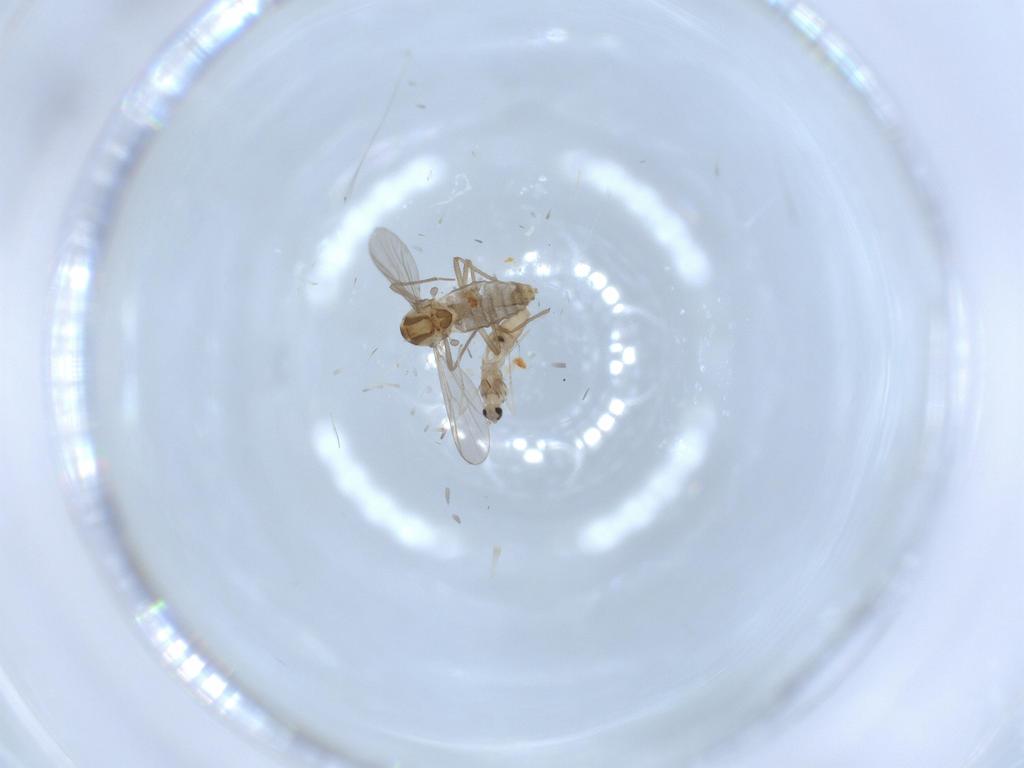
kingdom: Animalia
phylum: Arthropoda
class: Insecta
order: Diptera
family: Cecidomyiidae
